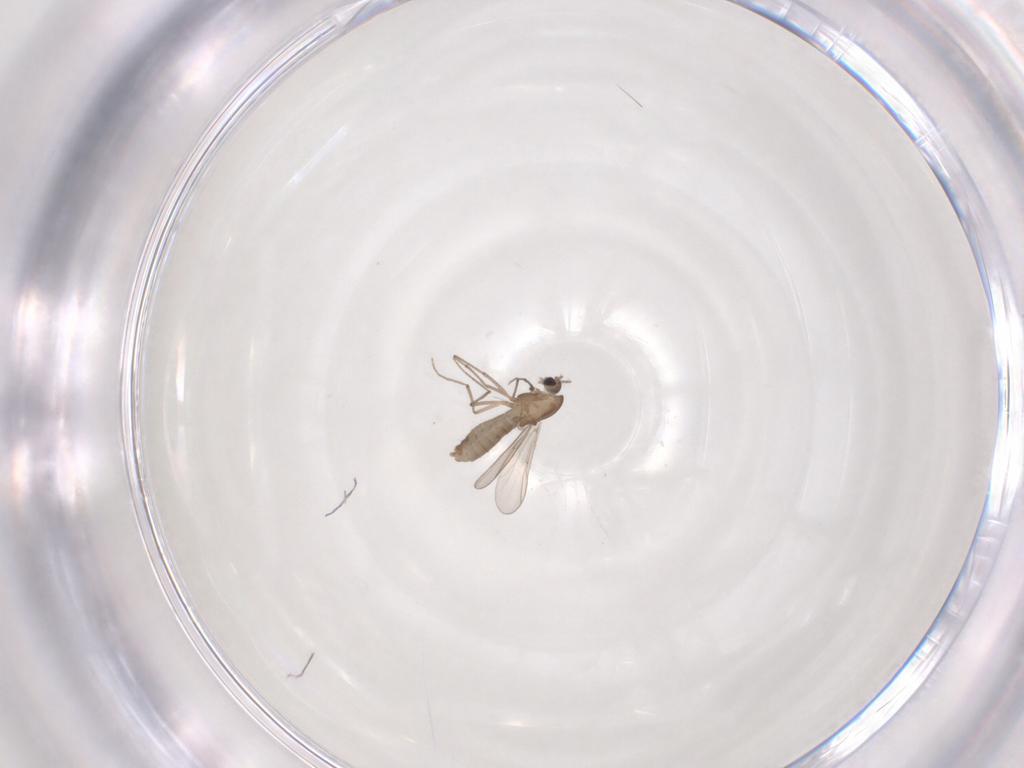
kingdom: Animalia
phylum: Arthropoda
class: Insecta
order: Diptera
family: Chironomidae
